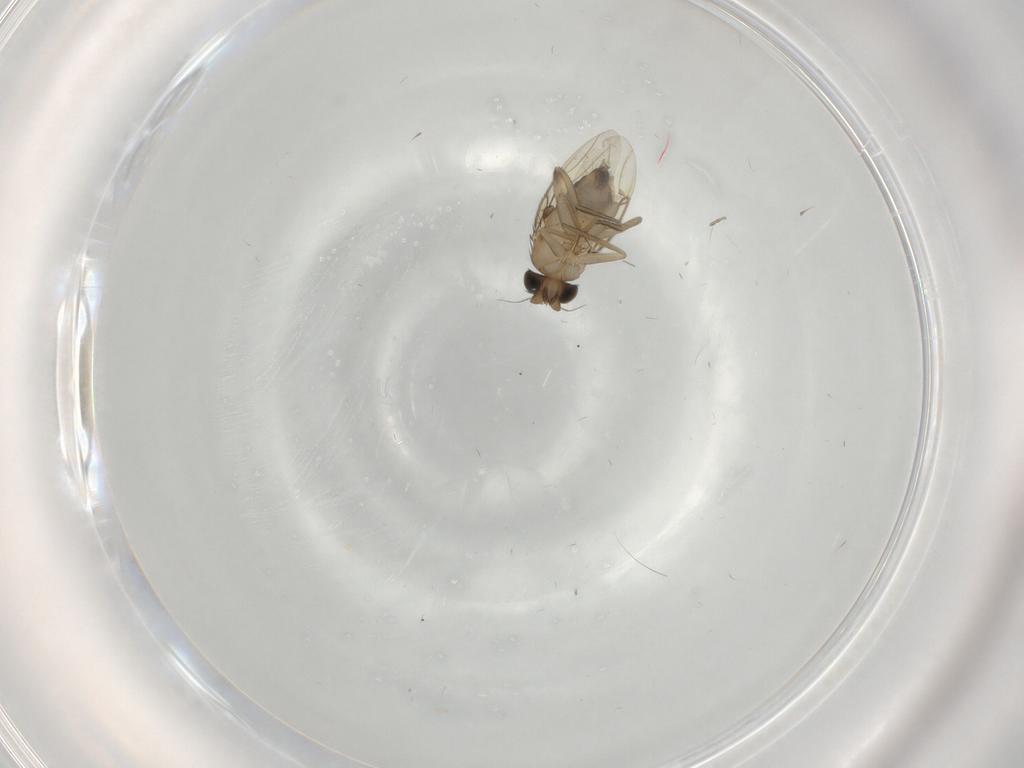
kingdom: Animalia
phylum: Arthropoda
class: Insecta
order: Diptera
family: Phoridae
